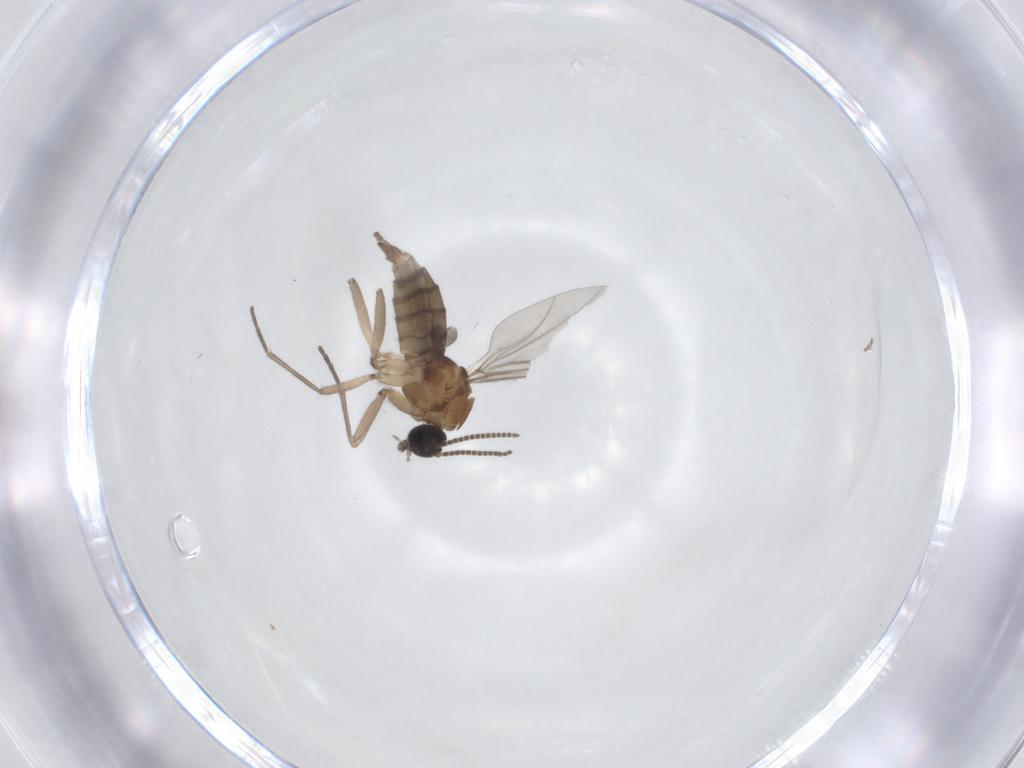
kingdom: Animalia
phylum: Arthropoda
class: Insecta
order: Diptera
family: Sciaridae
